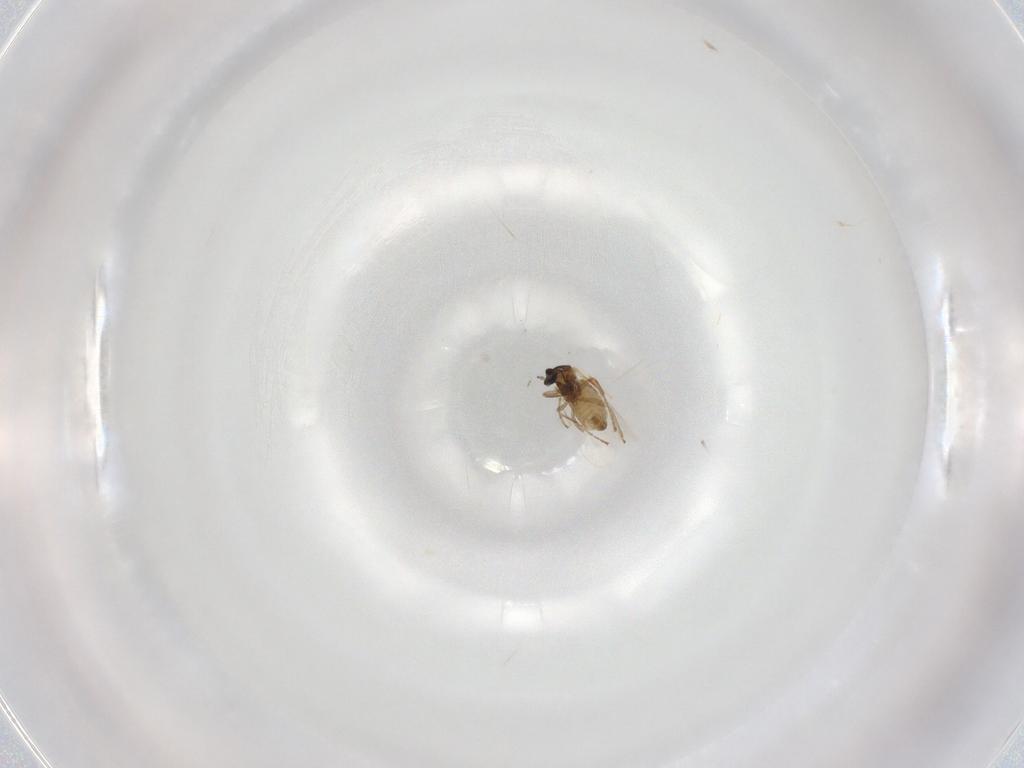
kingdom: Animalia
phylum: Arthropoda
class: Insecta
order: Diptera
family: Cecidomyiidae
